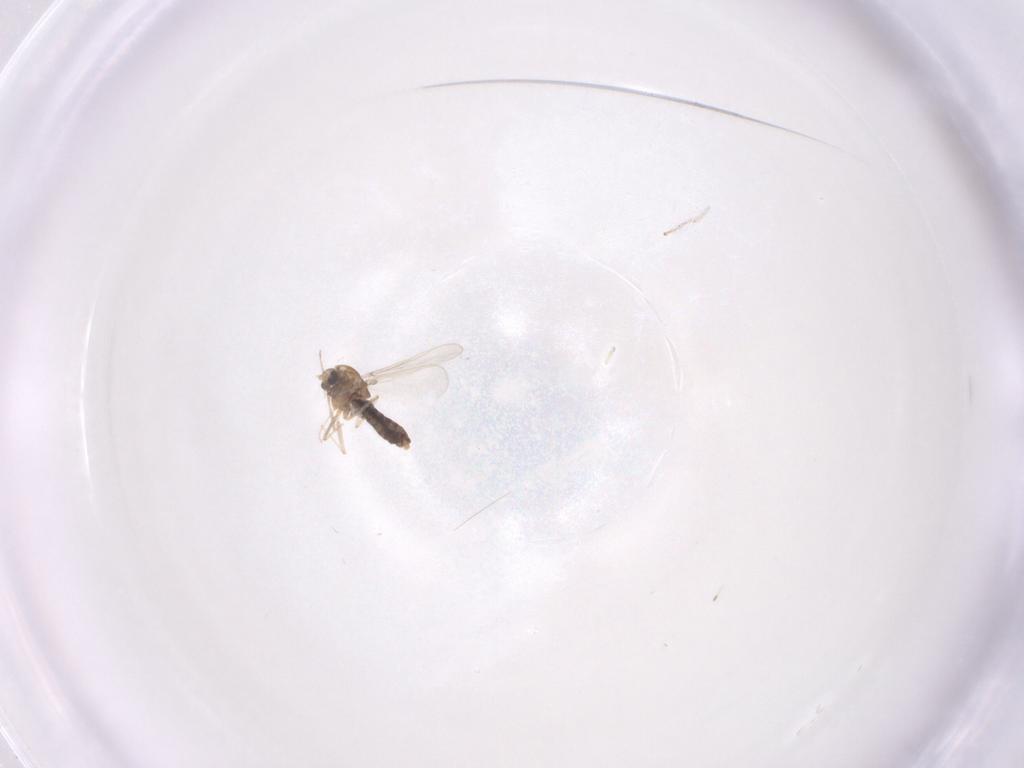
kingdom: Animalia
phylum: Arthropoda
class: Insecta
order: Diptera
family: Chironomidae
